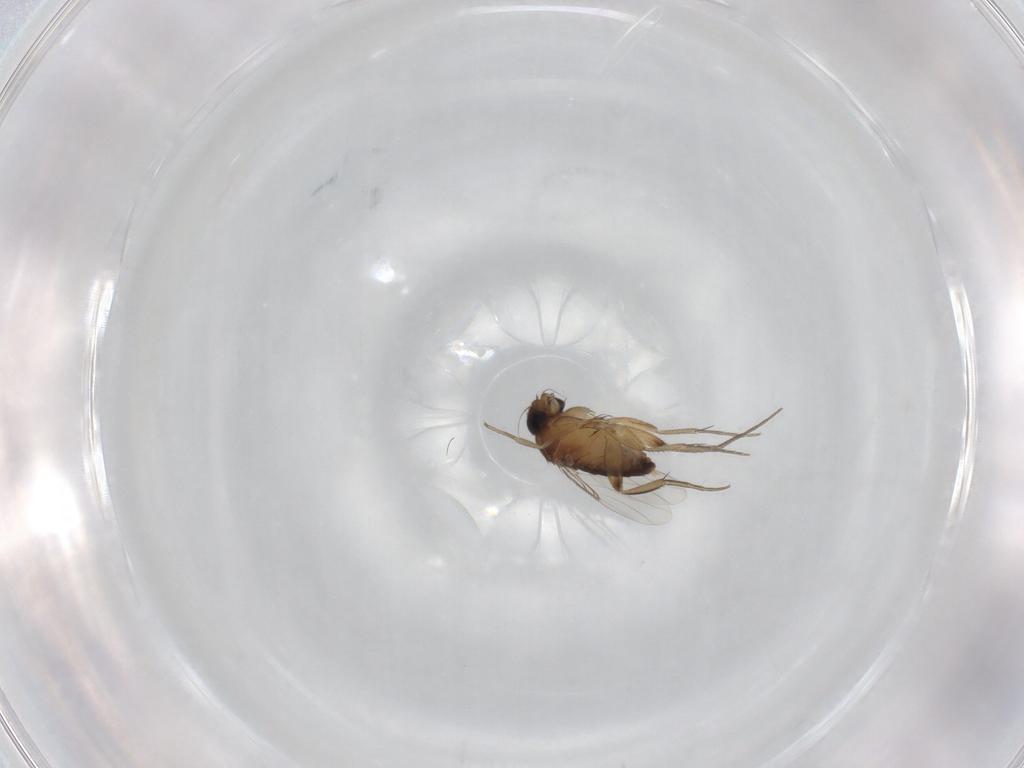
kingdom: Animalia
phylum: Arthropoda
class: Insecta
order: Diptera
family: Phoridae
